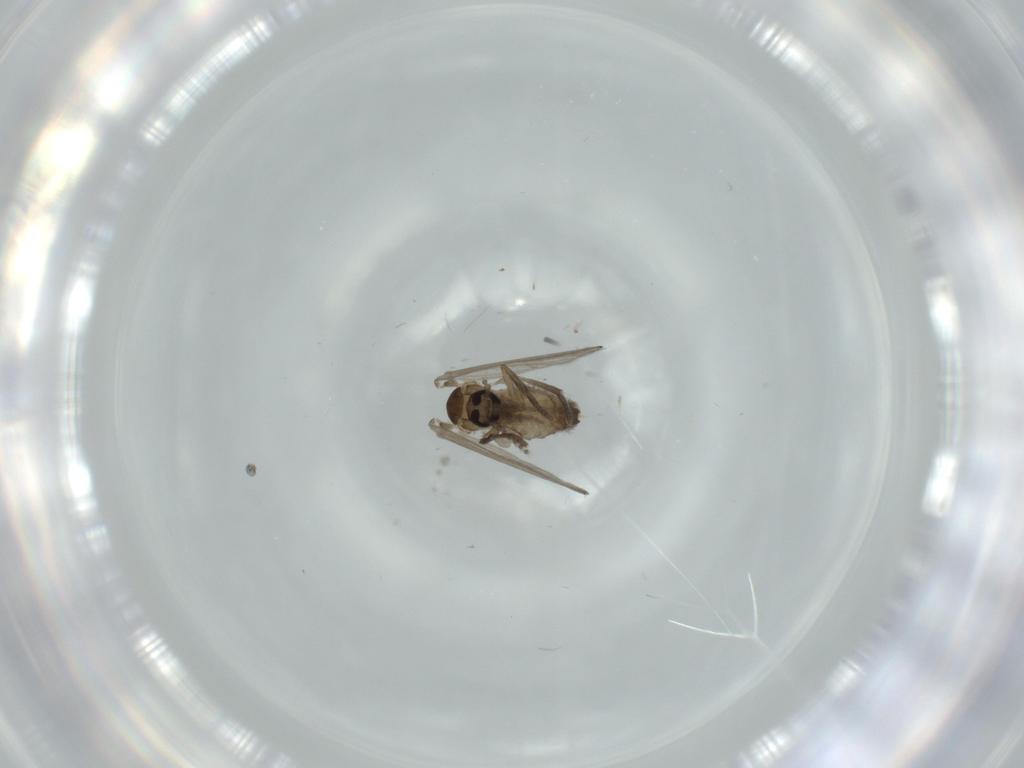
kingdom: Animalia
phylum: Arthropoda
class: Insecta
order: Diptera
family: Psychodidae
